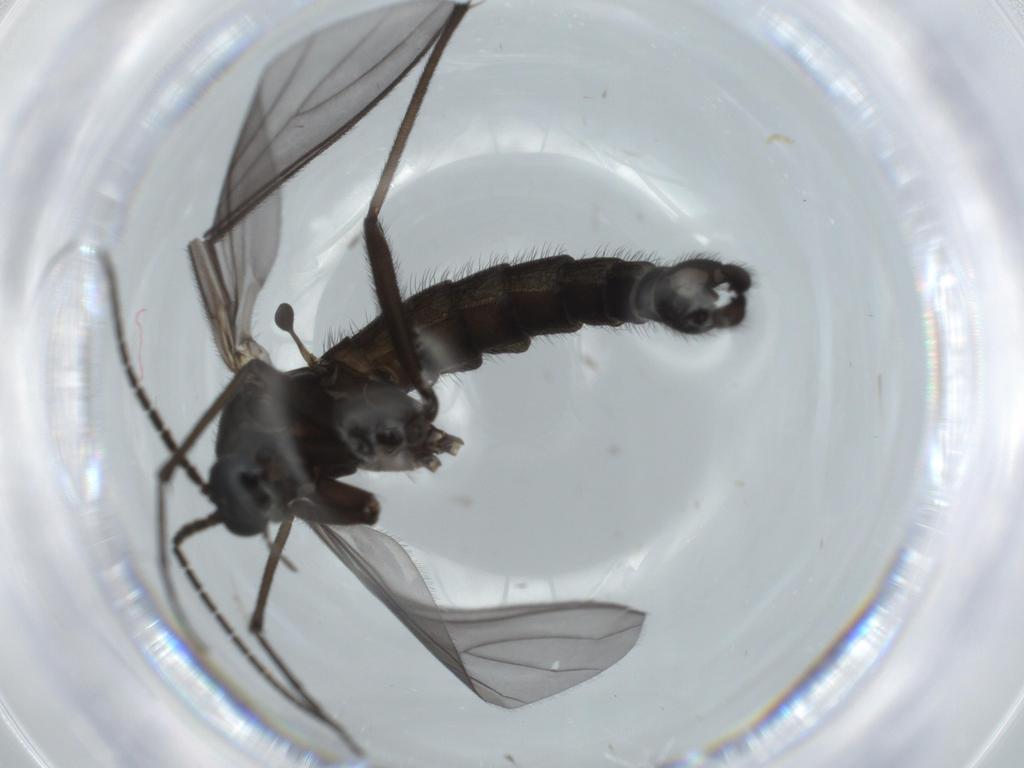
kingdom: Animalia
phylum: Arthropoda
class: Insecta
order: Diptera
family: Ceratopogonidae
